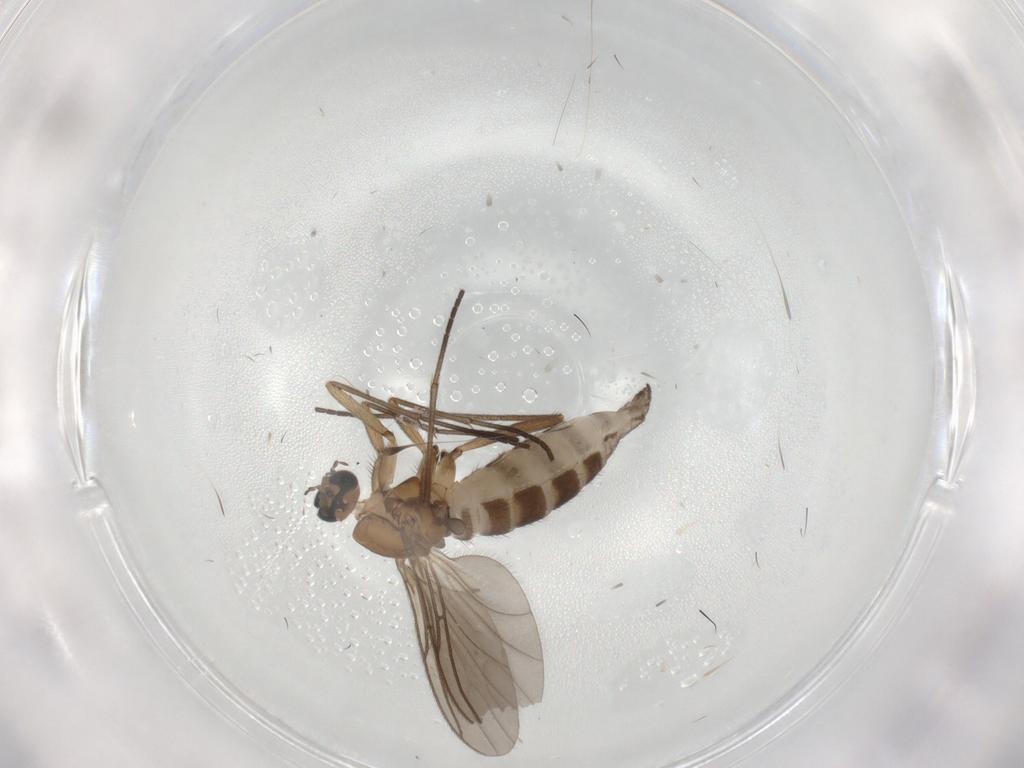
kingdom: Animalia
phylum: Arthropoda
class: Insecta
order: Diptera
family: Sciaridae
